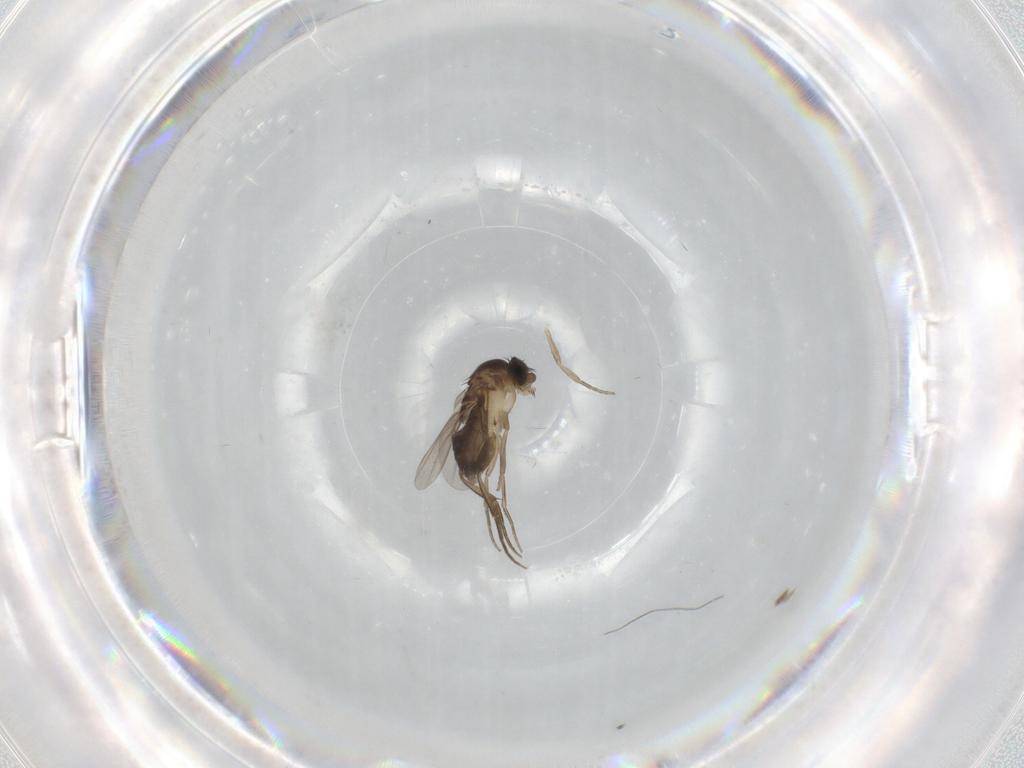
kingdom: Animalia
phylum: Arthropoda
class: Insecta
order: Diptera
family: Phoridae
